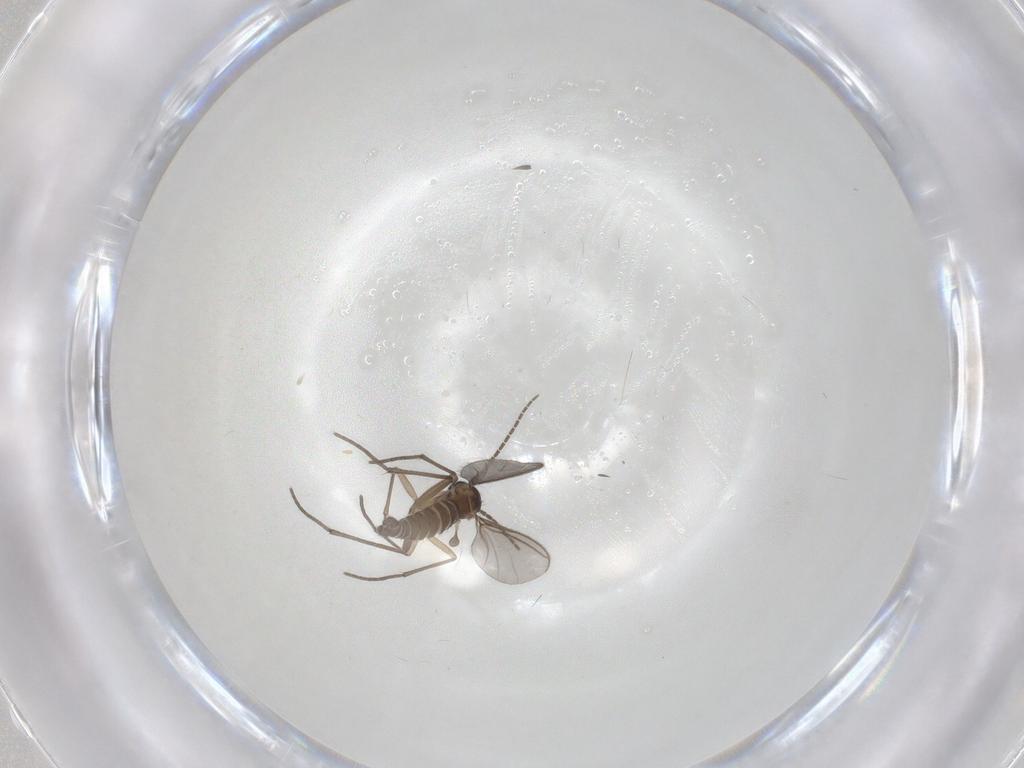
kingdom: Animalia
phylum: Arthropoda
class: Insecta
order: Diptera
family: Sciaridae
